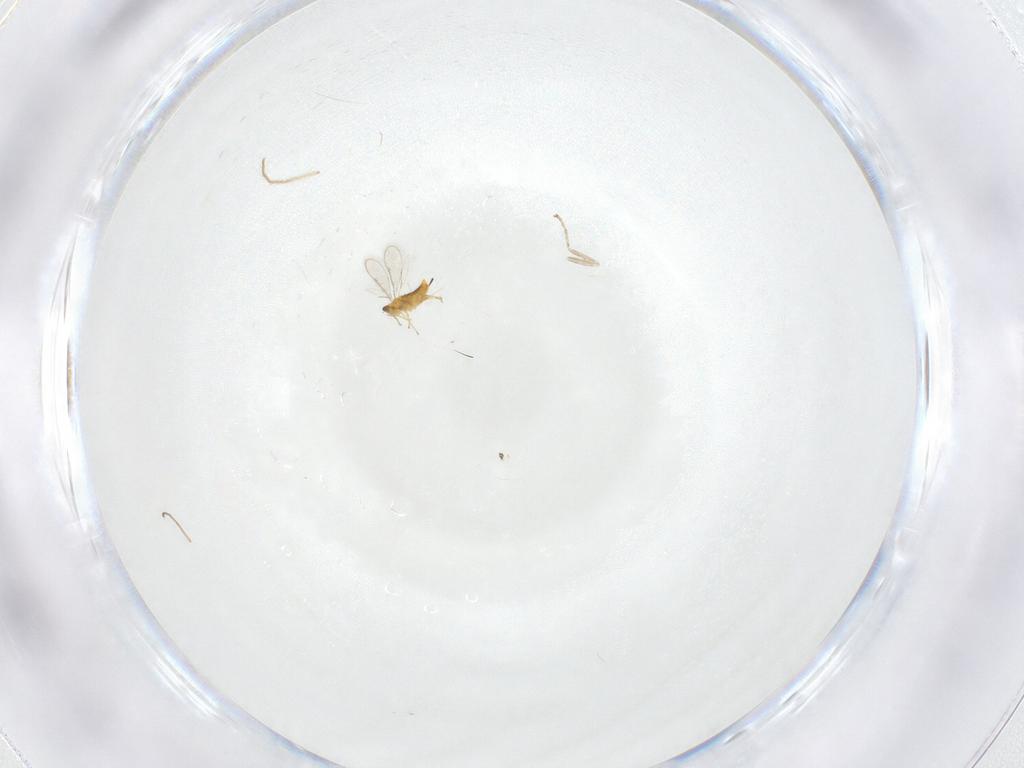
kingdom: Animalia
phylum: Arthropoda
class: Insecta
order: Hymenoptera
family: Aphelinidae
